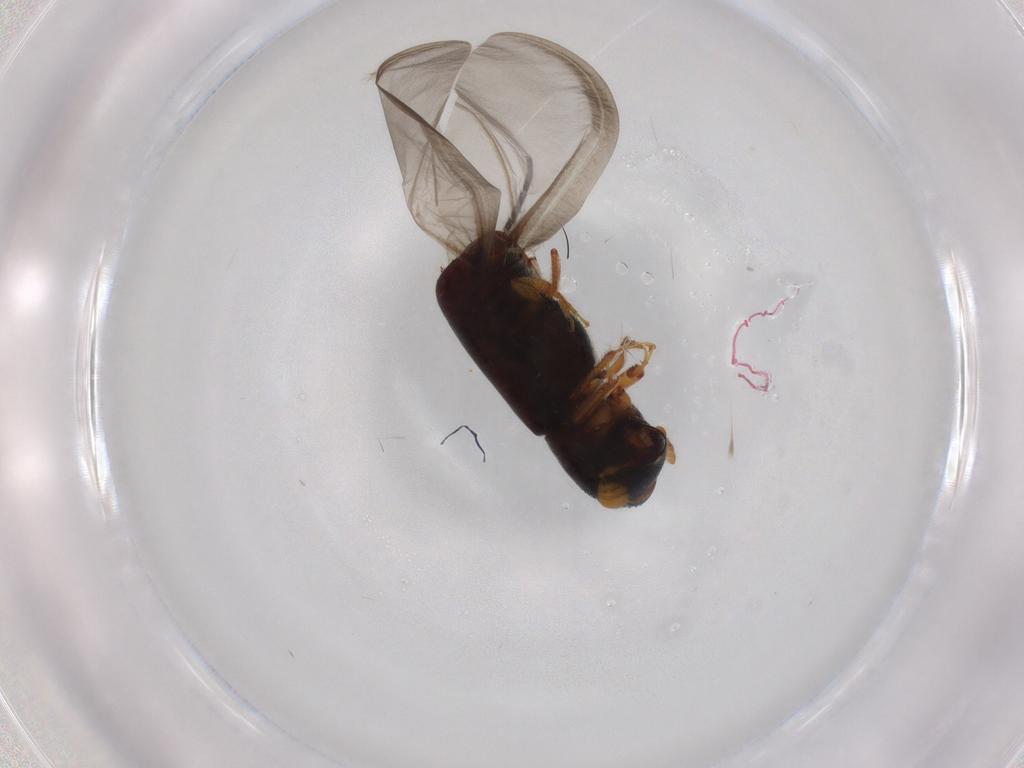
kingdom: Animalia
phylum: Arthropoda
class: Insecta
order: Coleoptera
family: Curculionidae
